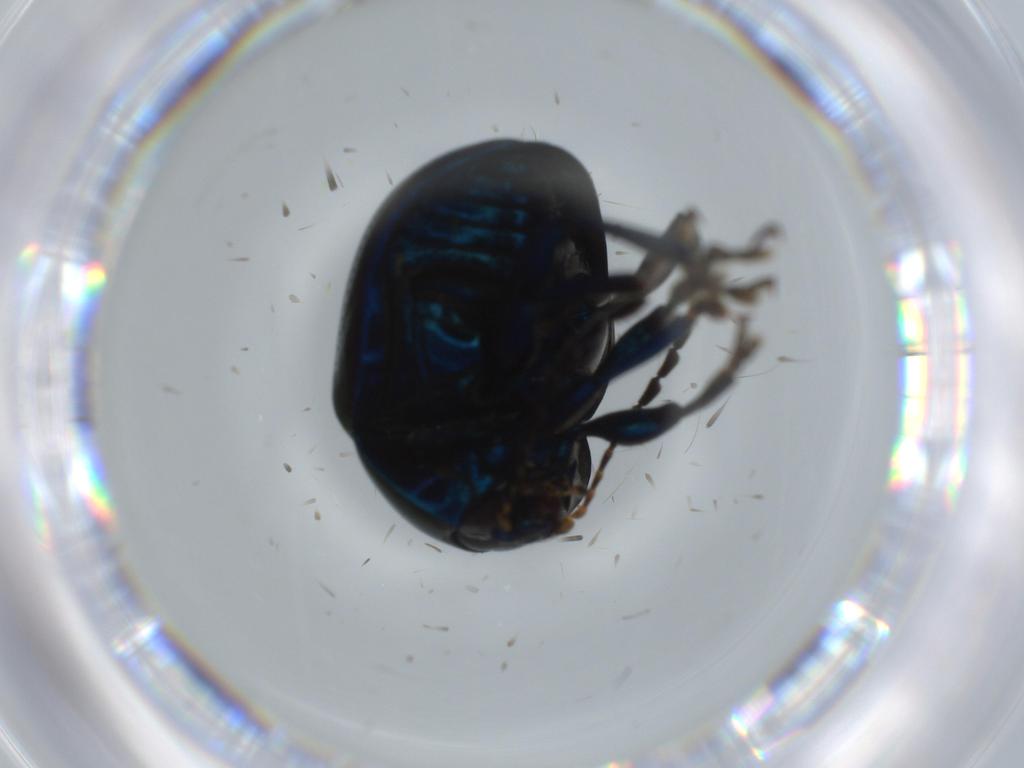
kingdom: Animalia
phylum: Arthropoda
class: Insecta
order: Coleoptera
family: Chrysomelidae
